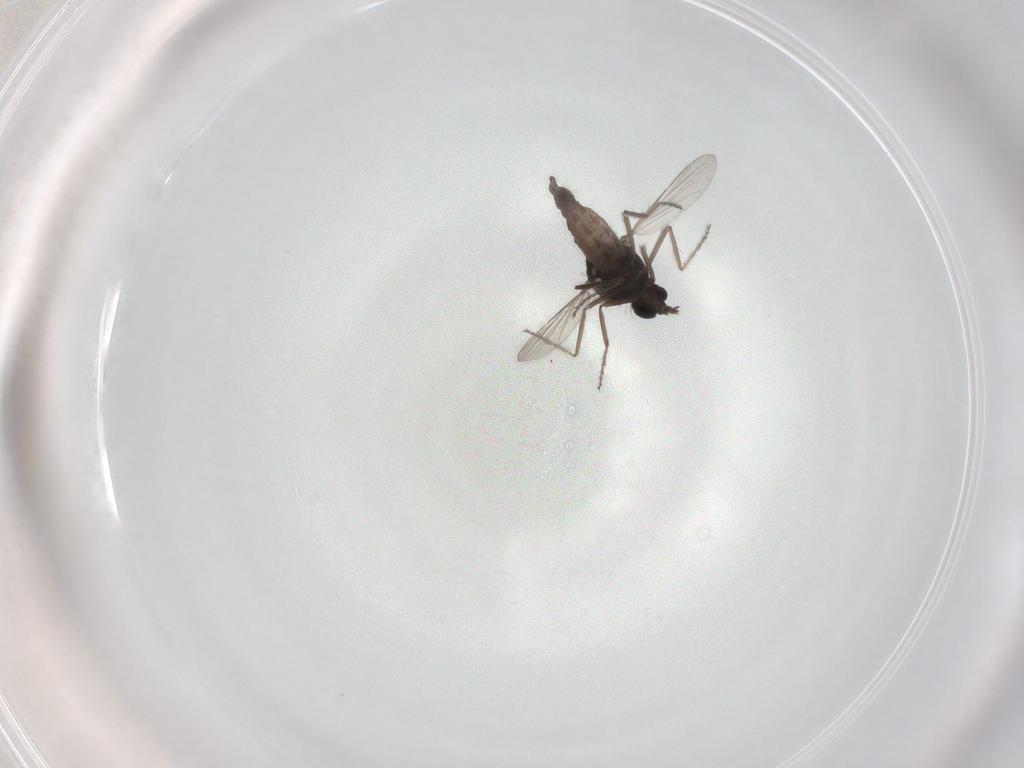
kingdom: Animalia
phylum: Arthropoda
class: Insecta
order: Diptera
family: Ceratopogonidae
